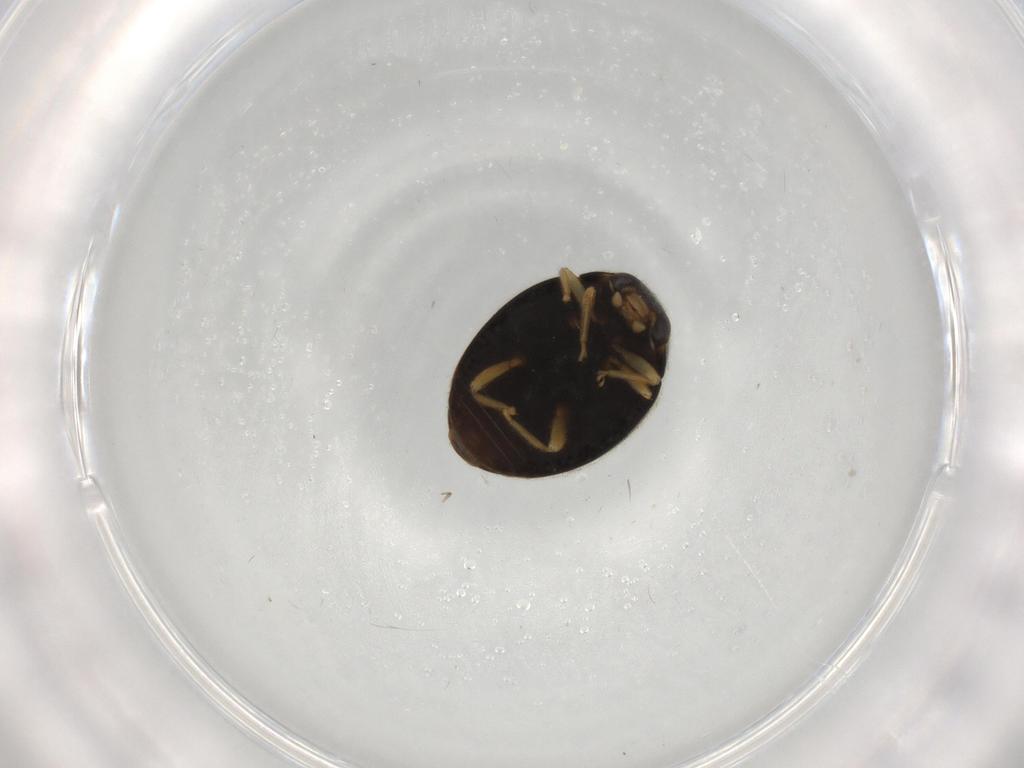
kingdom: Animalia
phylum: Arthropoda
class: Insecta
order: Coleoptera
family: Coccinellidae
